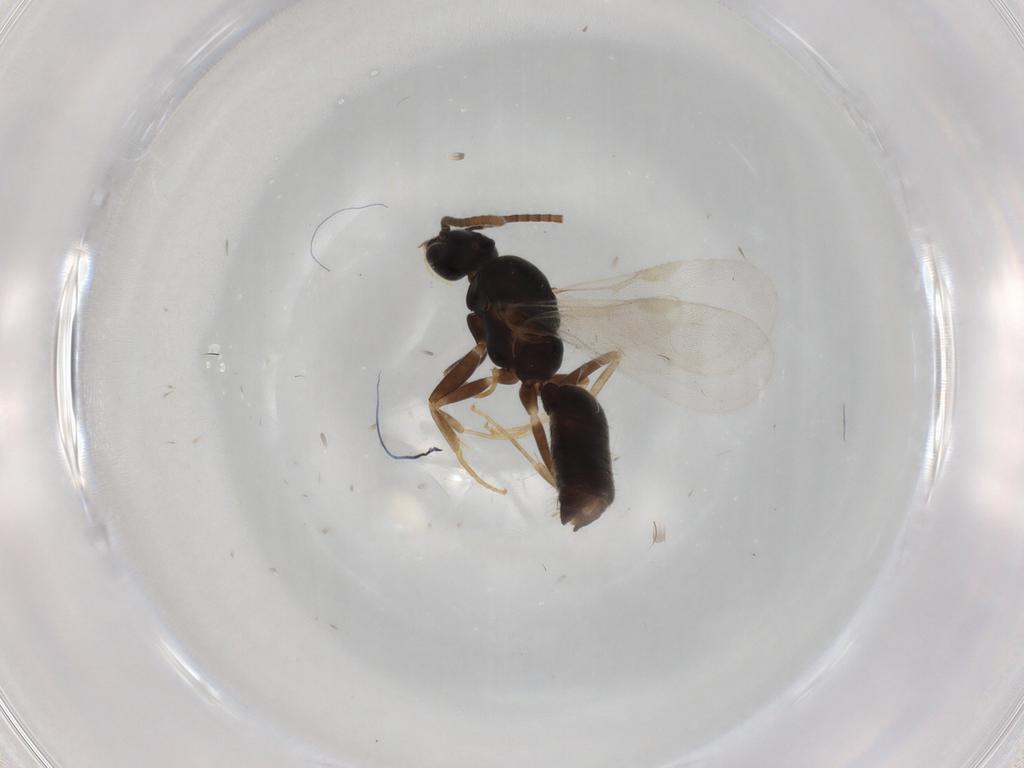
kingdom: Animalia
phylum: Arthropoda
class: Insecta
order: Hymenoptera
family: Formicidae
